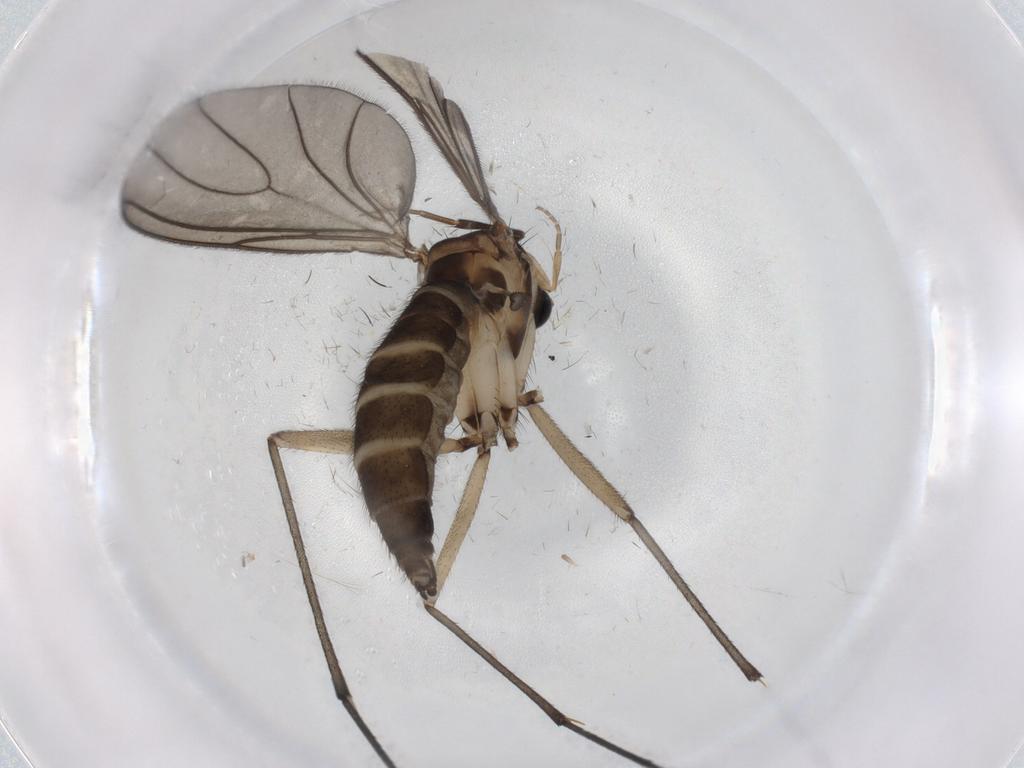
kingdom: Animalia
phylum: Arthropoda
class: Insecta
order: Diptera
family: Sciaridae
